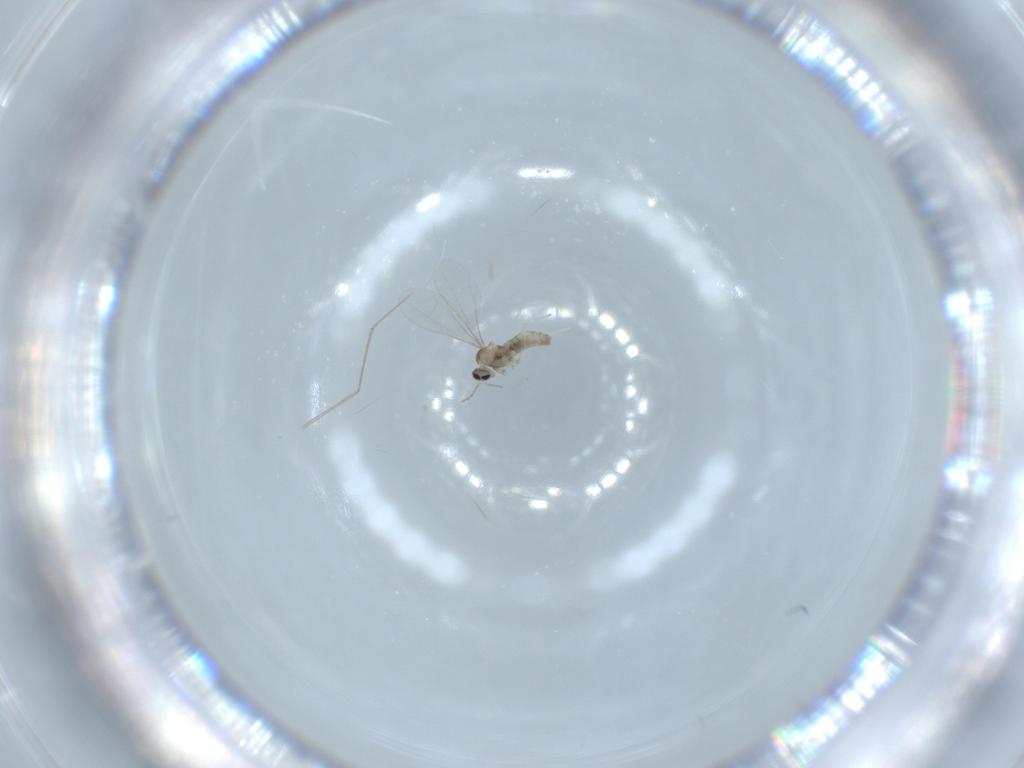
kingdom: Animalia
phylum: Arthropoda
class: Insecta
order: Diptera
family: Cecidomyiidae
